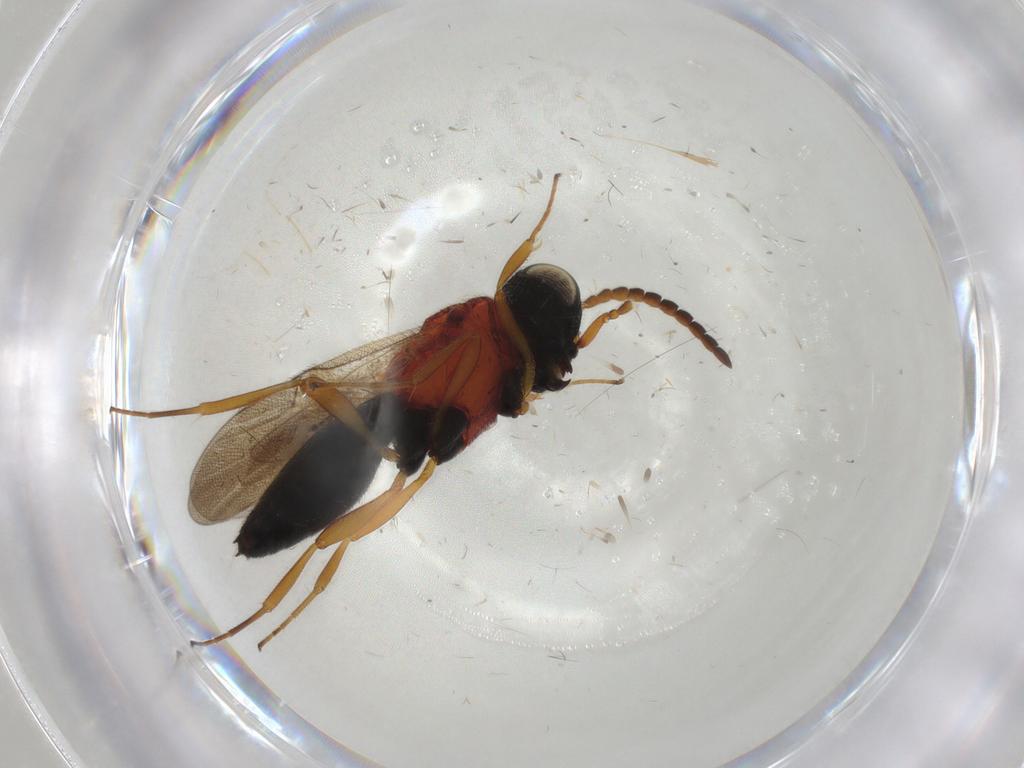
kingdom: Animalia
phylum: Arthropoda
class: Insecta
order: Hymenoptera
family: Scelionidae
